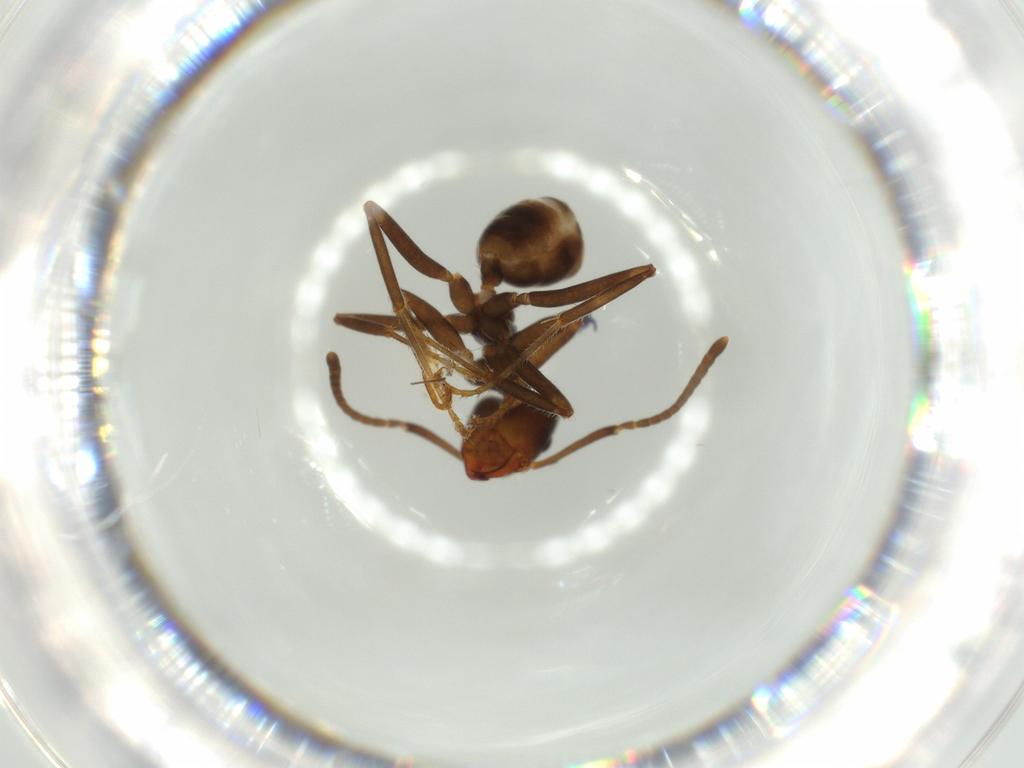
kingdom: Animalia
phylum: Arthropoda
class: Insecta
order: Hymenoptera
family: Formicidae
